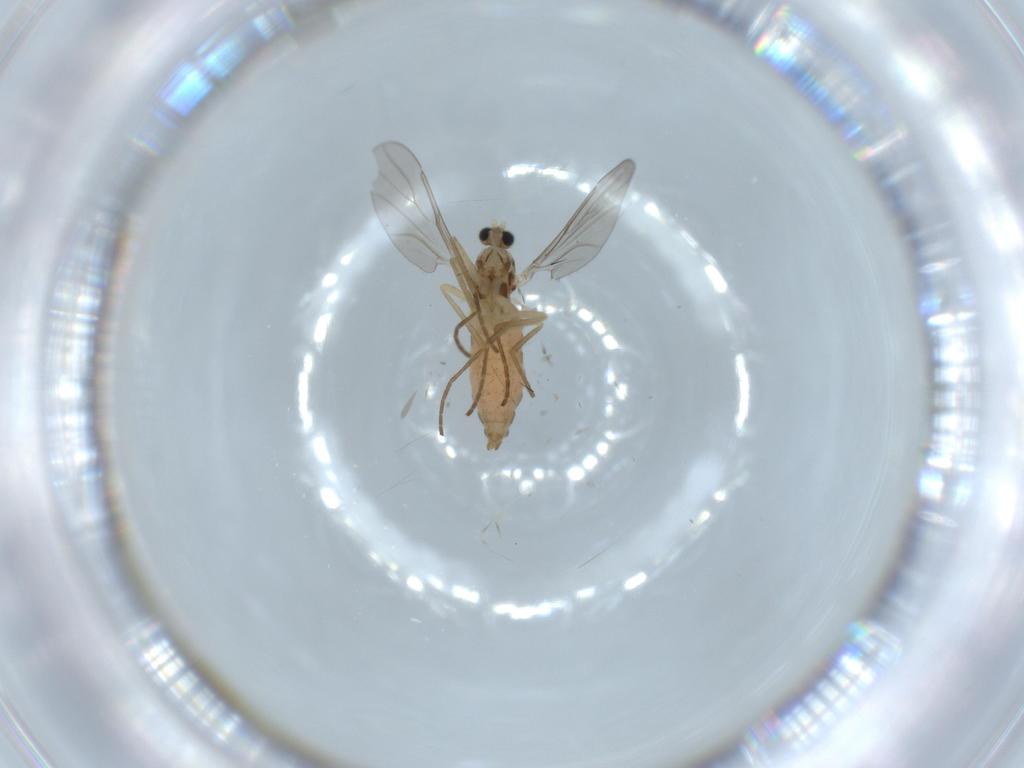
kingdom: Animalia
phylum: Arthropoda
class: Insecta
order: Diptera
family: Cecidomyiidae
